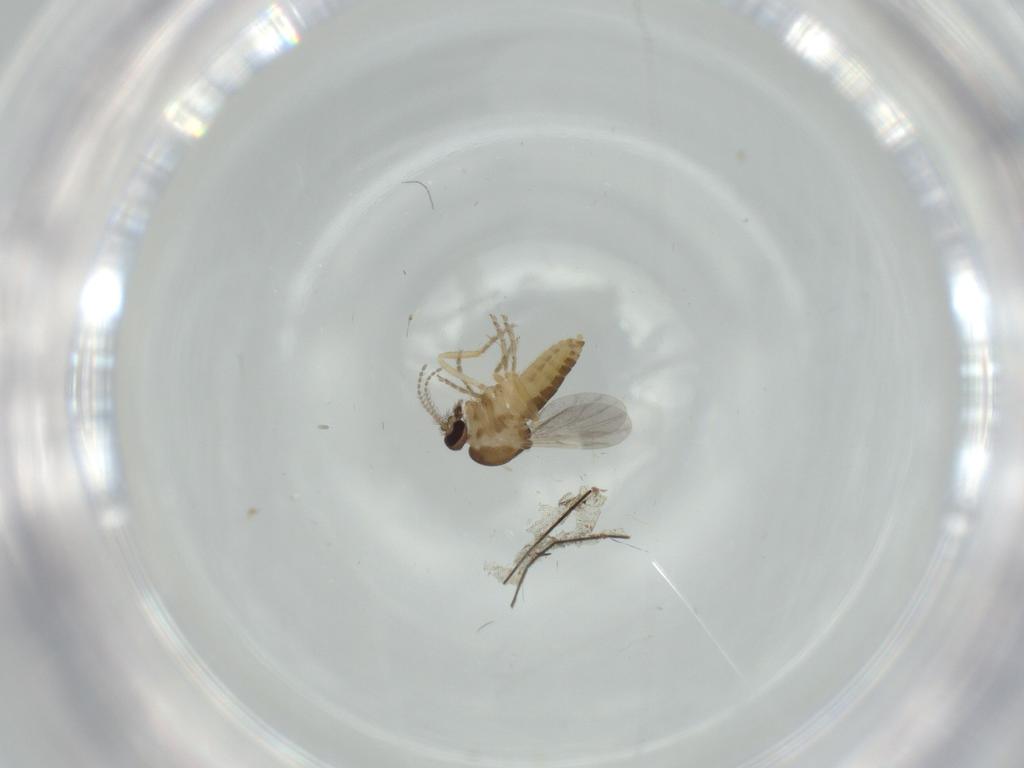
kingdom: Animalia
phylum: Arthropoda
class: Insecta
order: Diptera
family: Ceratopogonidae
